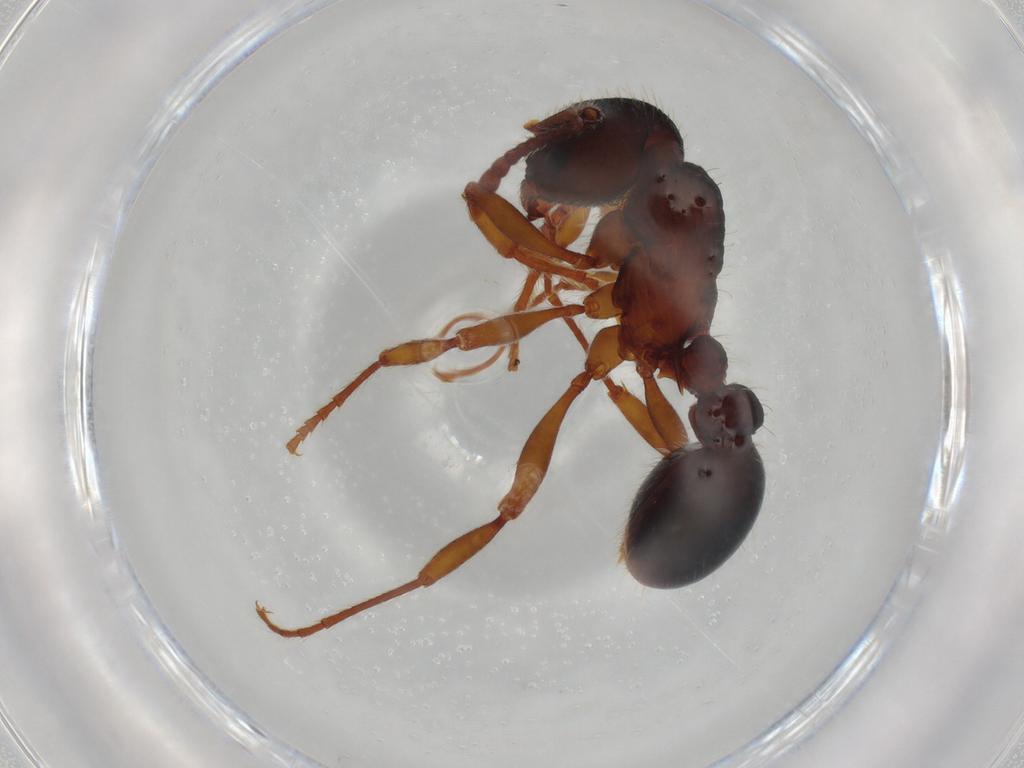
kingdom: Animalia
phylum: Arthropoda
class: Insecta
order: Hymenoptera
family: Formicidae
